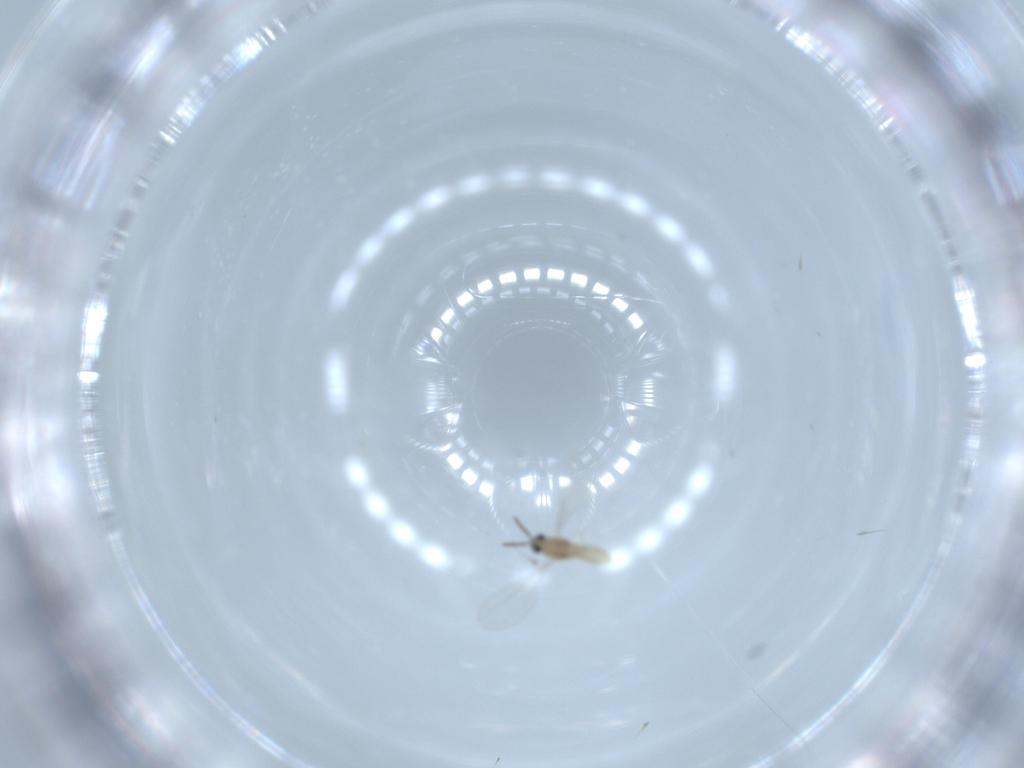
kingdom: Animalia
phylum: Arthropoda
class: Insecta
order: Diptera
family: Cecidomyiidae
